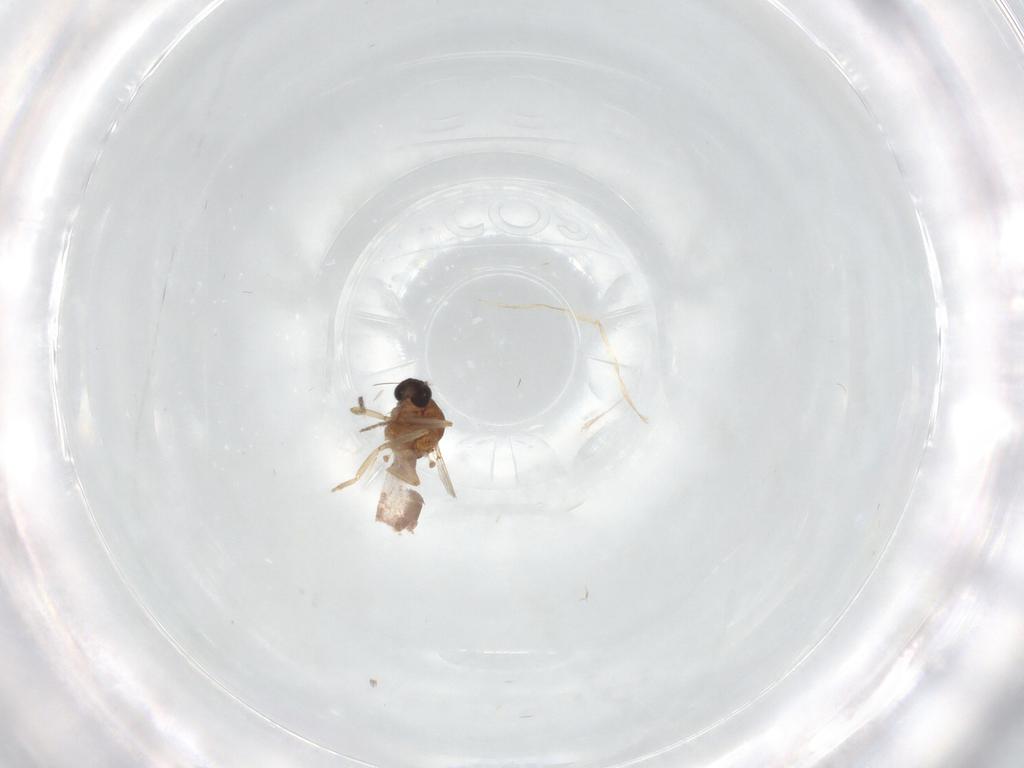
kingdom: Animalia
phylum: Arthropoda
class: Insecta
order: Diptera
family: Ceratopogonidae
